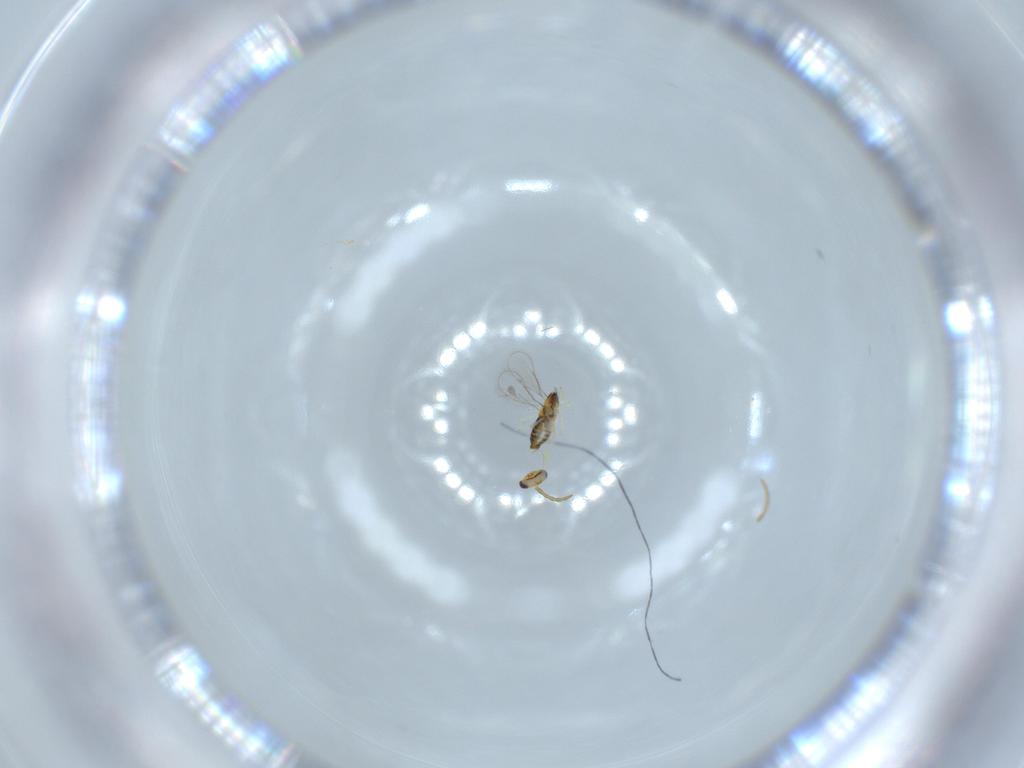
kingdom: Animalia
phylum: Arthropoda
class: Insecta
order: Hymenoptera
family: Aphelinidae
